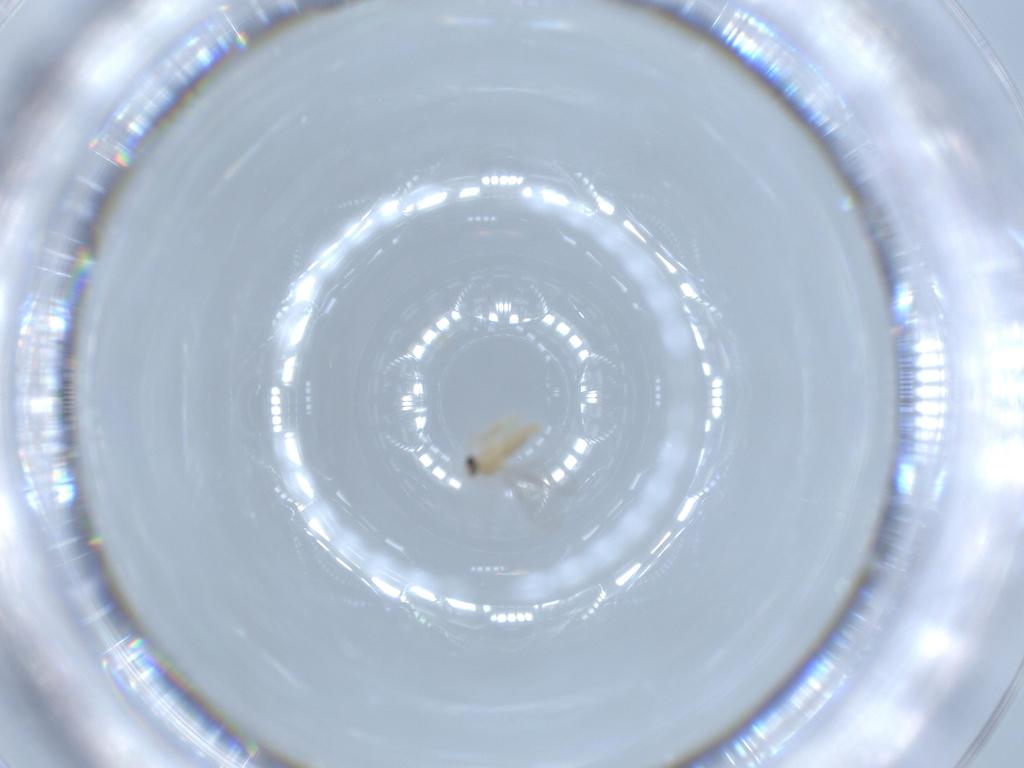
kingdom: Animalia
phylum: Arthropoda
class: Insecta
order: Diptera
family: Cecidomyiidae
